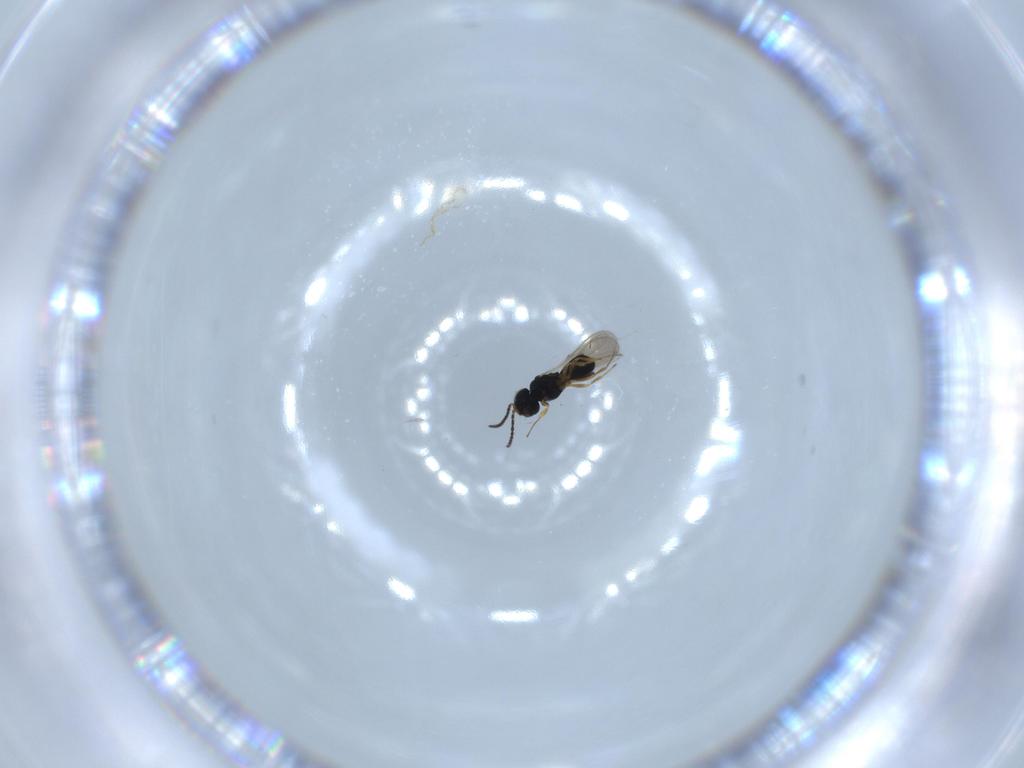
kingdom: Animalia
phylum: Arthropoda
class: Insecta
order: Hymenoptera
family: Scelionidae
